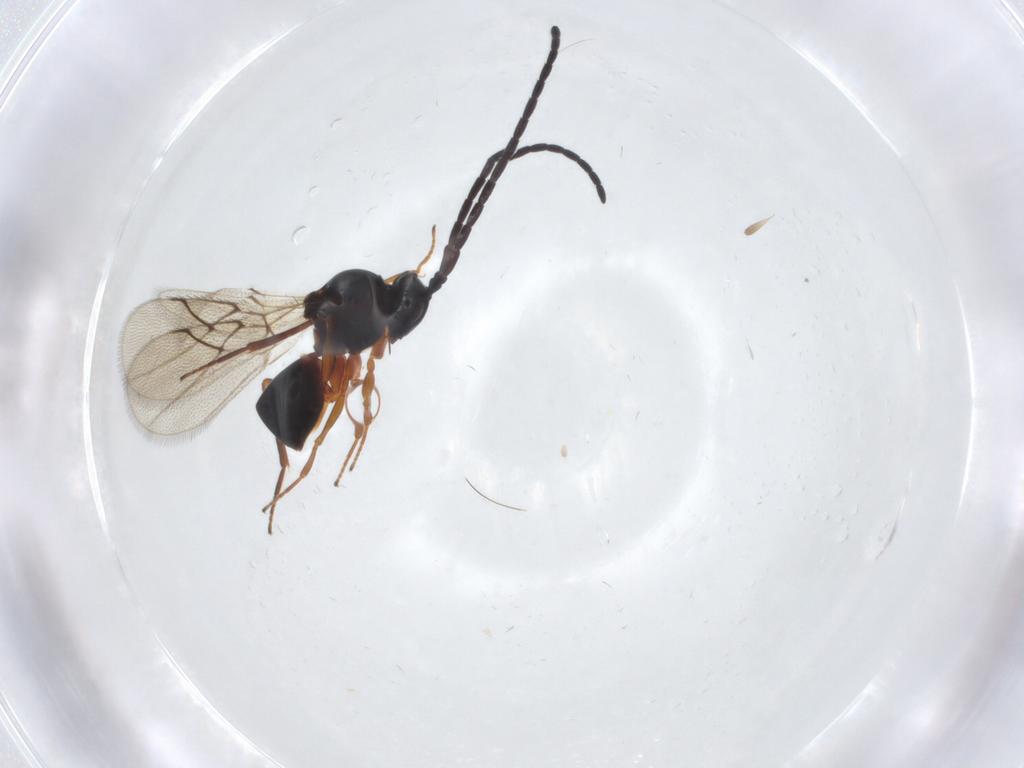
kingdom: Animalia
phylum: Arthropoda
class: Insecta
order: Hymenoptera
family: Figitidae
